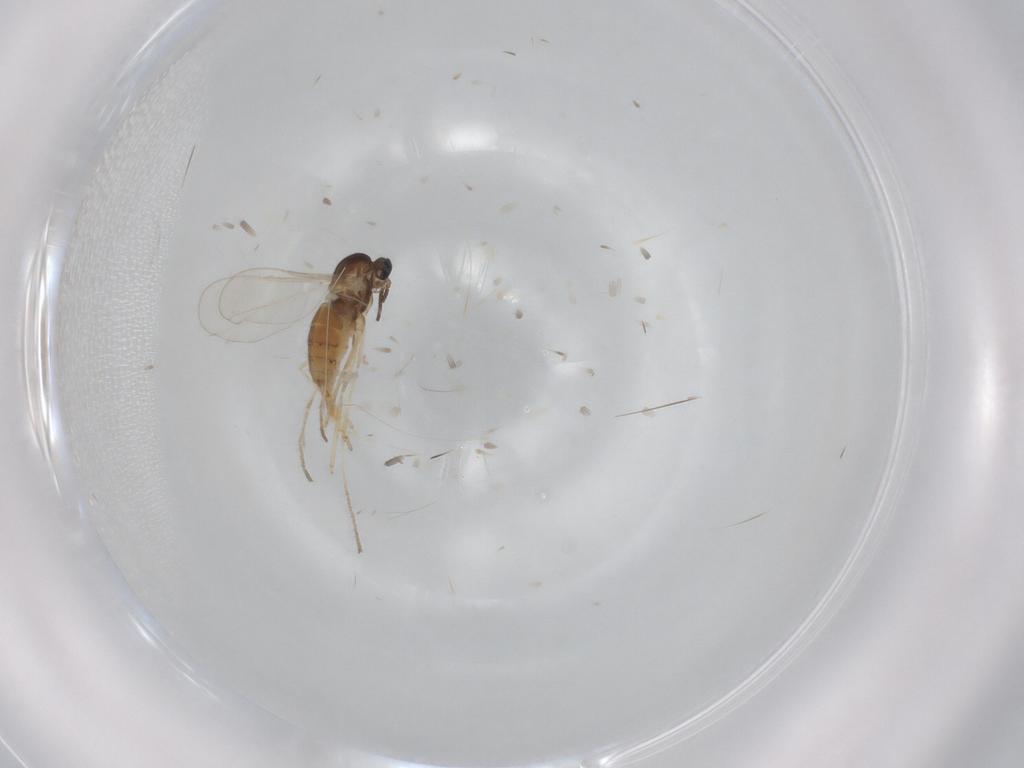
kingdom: Animalia
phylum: Arthropoda
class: Insecta
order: Diptera
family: Cecidomyiidae
